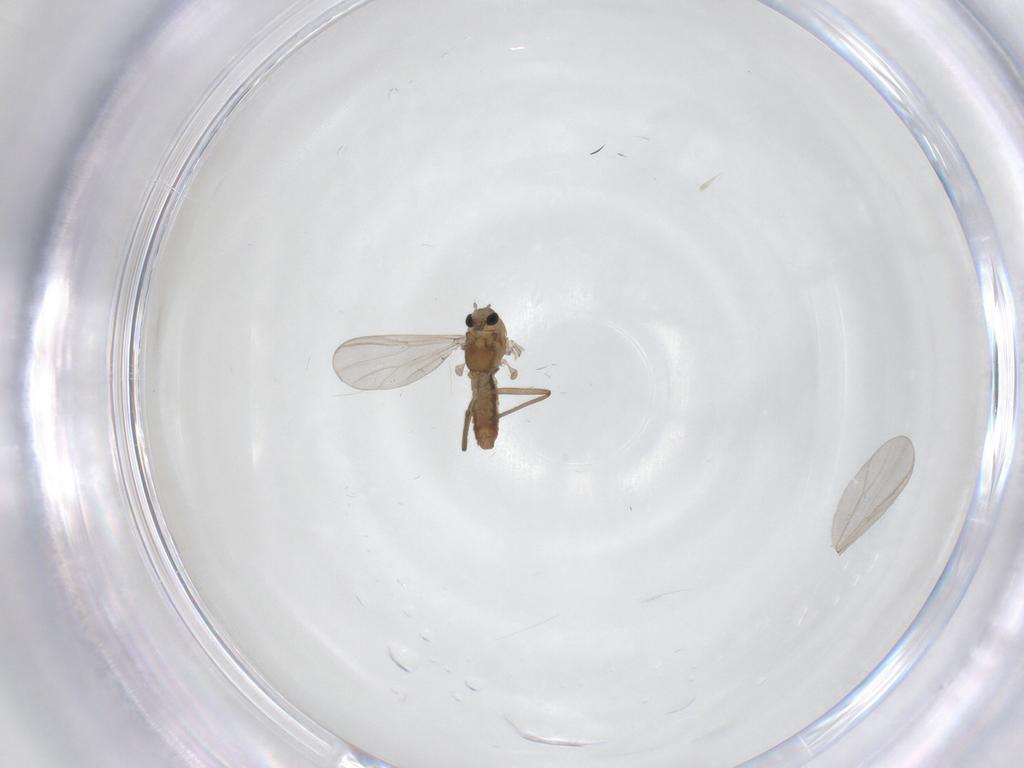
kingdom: Animalia
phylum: Arthropoda
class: Insecta
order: Diptera
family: Chironomidae
